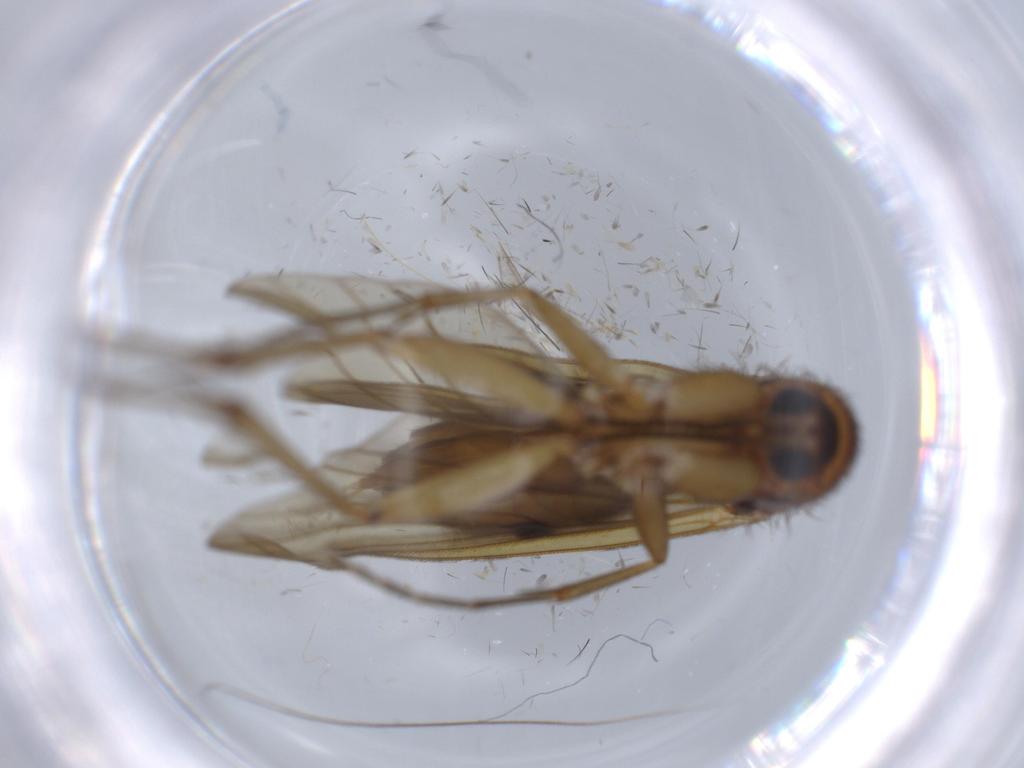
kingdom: Animalia
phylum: Arthropoda
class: Insecta
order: Diptera
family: Cecidomyiidae
